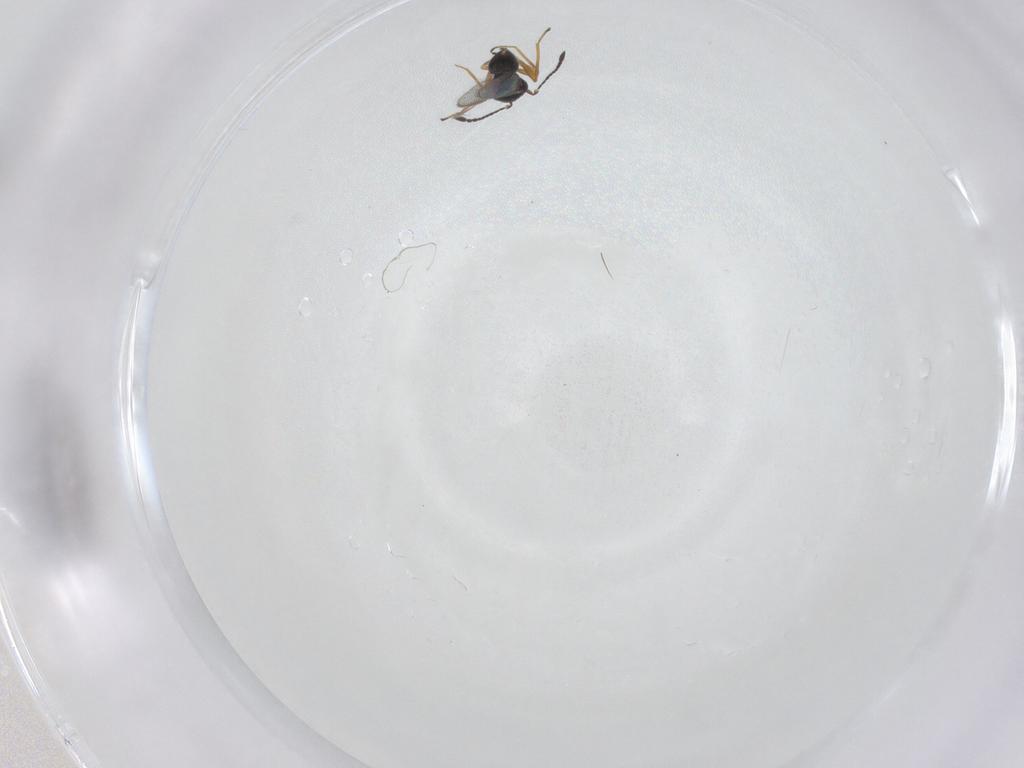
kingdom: Animalia
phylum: Arthropoda
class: Insecta
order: Hymenoptera
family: Mymaridae
